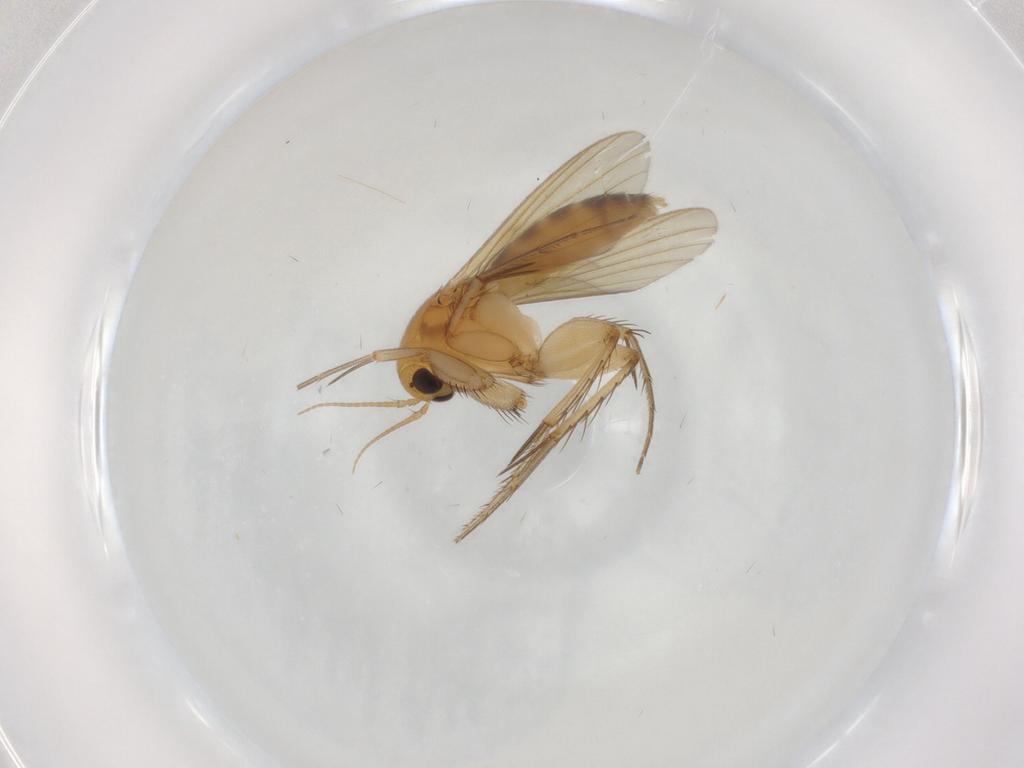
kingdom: Animalia
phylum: Arthropoda
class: Insecta
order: Diptera
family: Mycetophilidae
